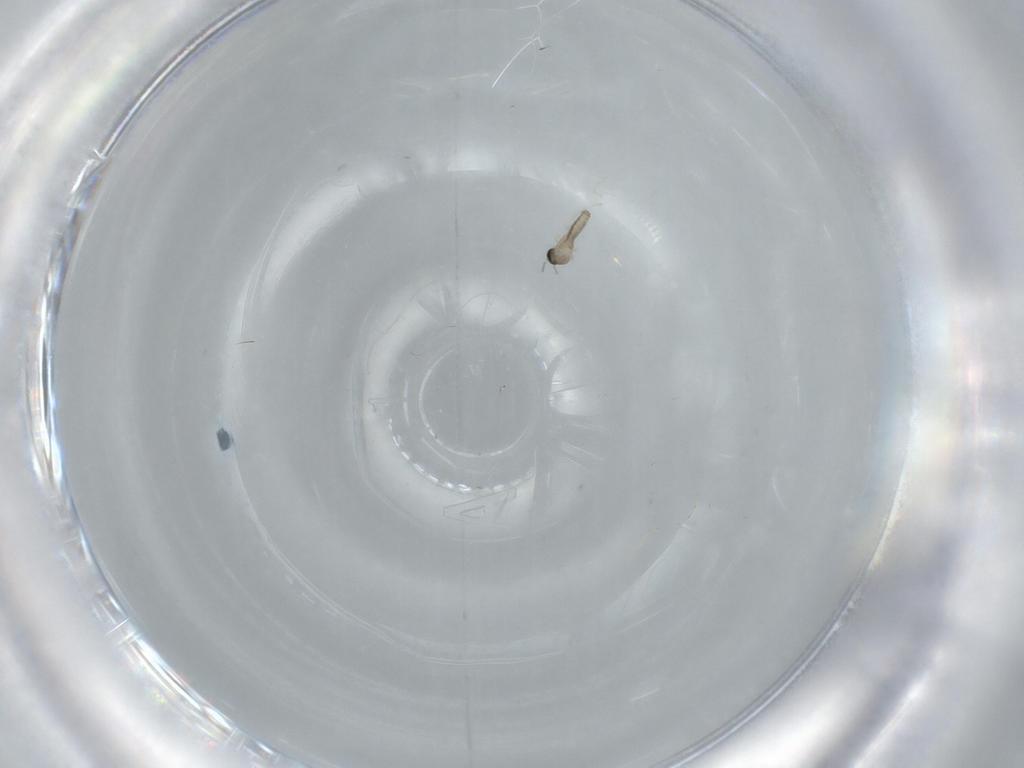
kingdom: Animalia
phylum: Arthropoda
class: Insecta
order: Diptera
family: Cecidomyiidae
